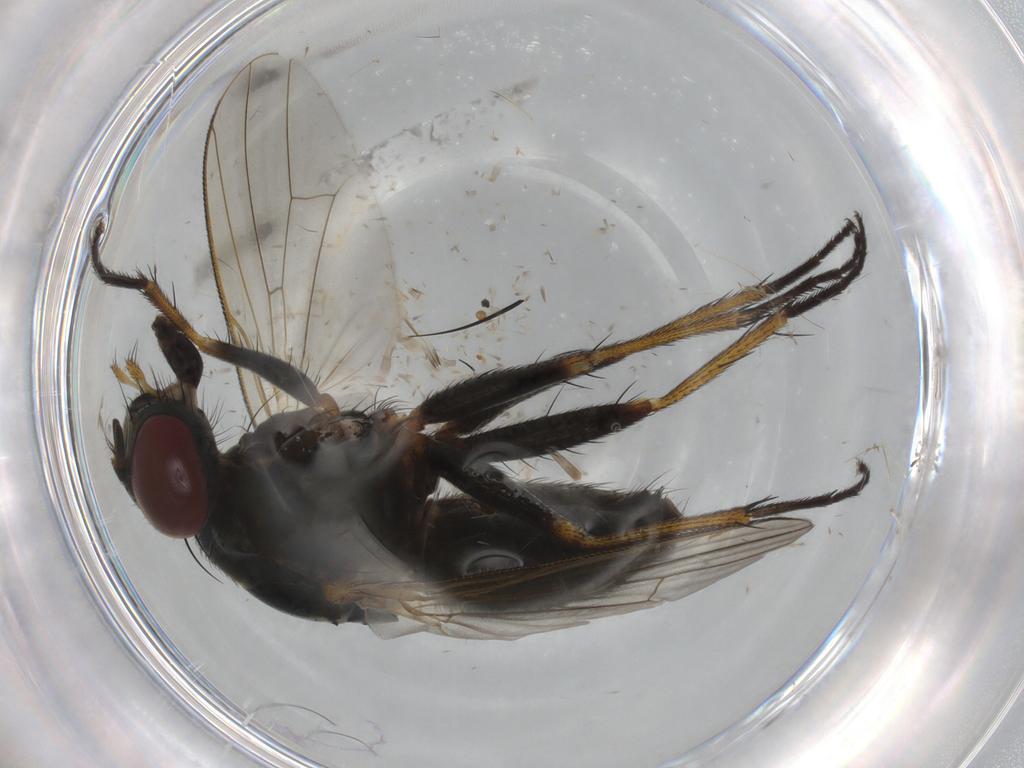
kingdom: Animalia
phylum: Arthropoda
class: Insecta
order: Diptera
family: Muscidae
